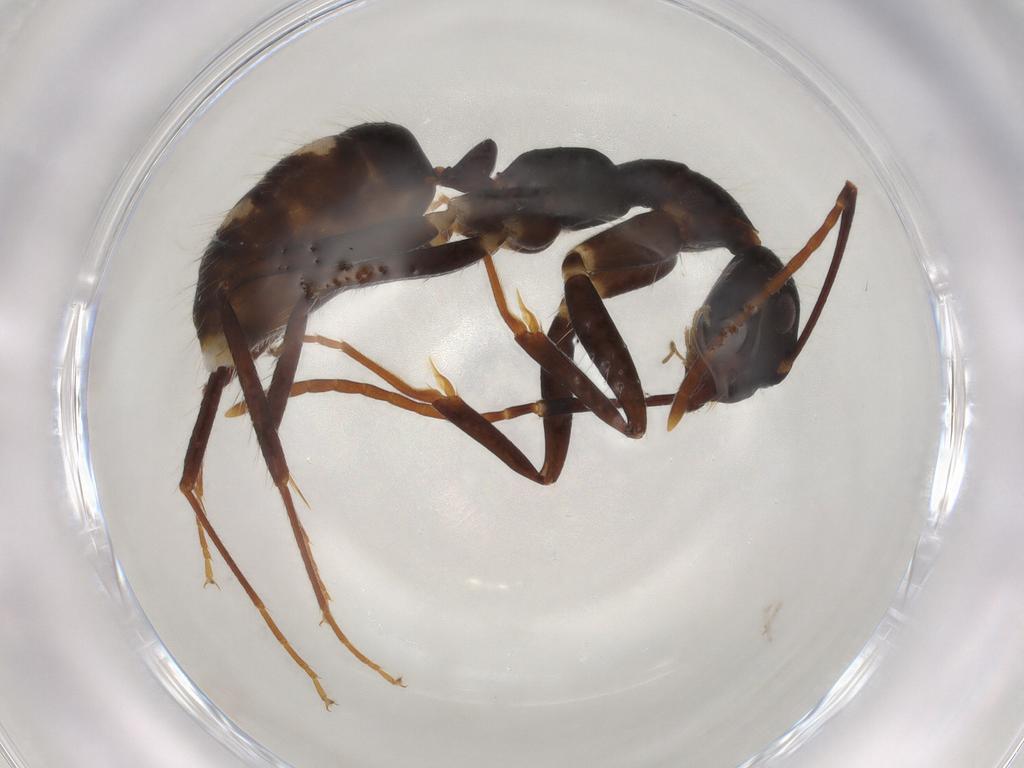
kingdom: Animalia
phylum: Arthropoda
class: Insecta
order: Hymenoptera
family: Formicidae
